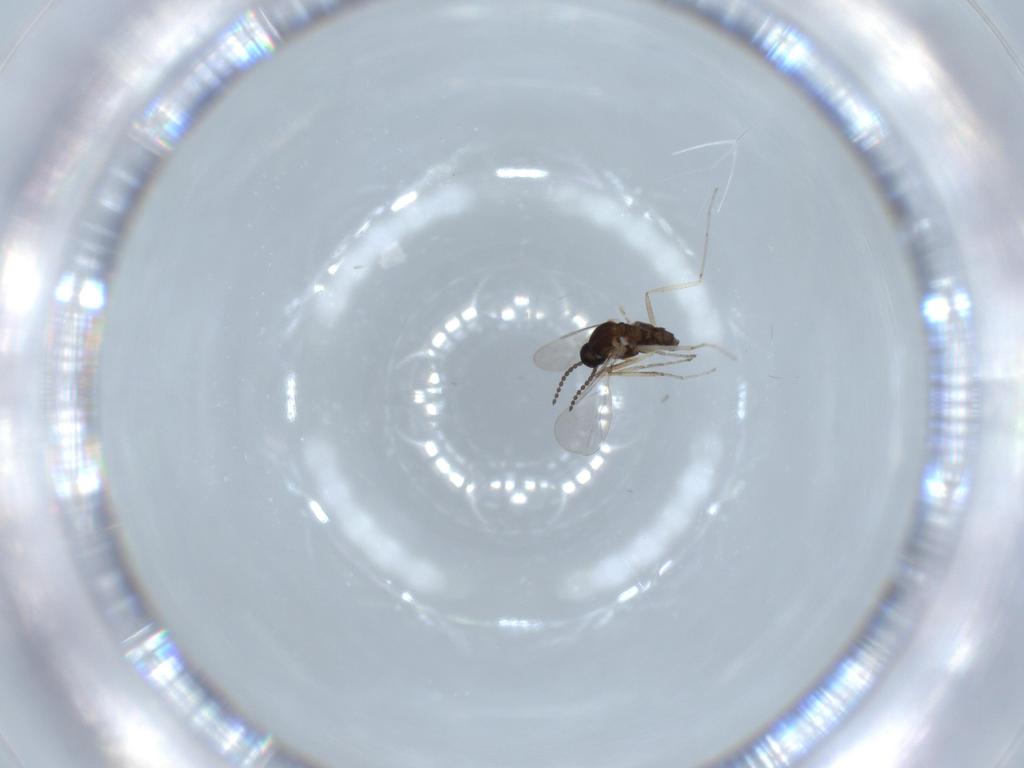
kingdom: Animalia
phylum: Arthropoda
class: Insecta
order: Diptera
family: Cecidomyiidae
